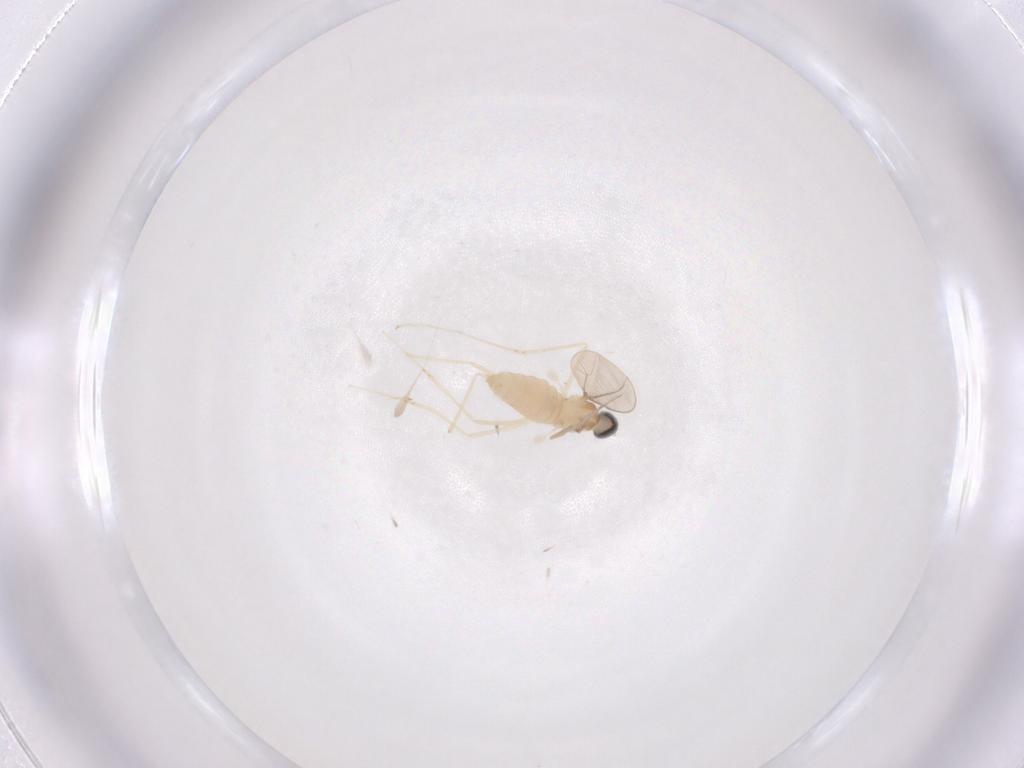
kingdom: Animalia
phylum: Arthropoda
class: Insecta
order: Diptera
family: Cecidomyiidae
